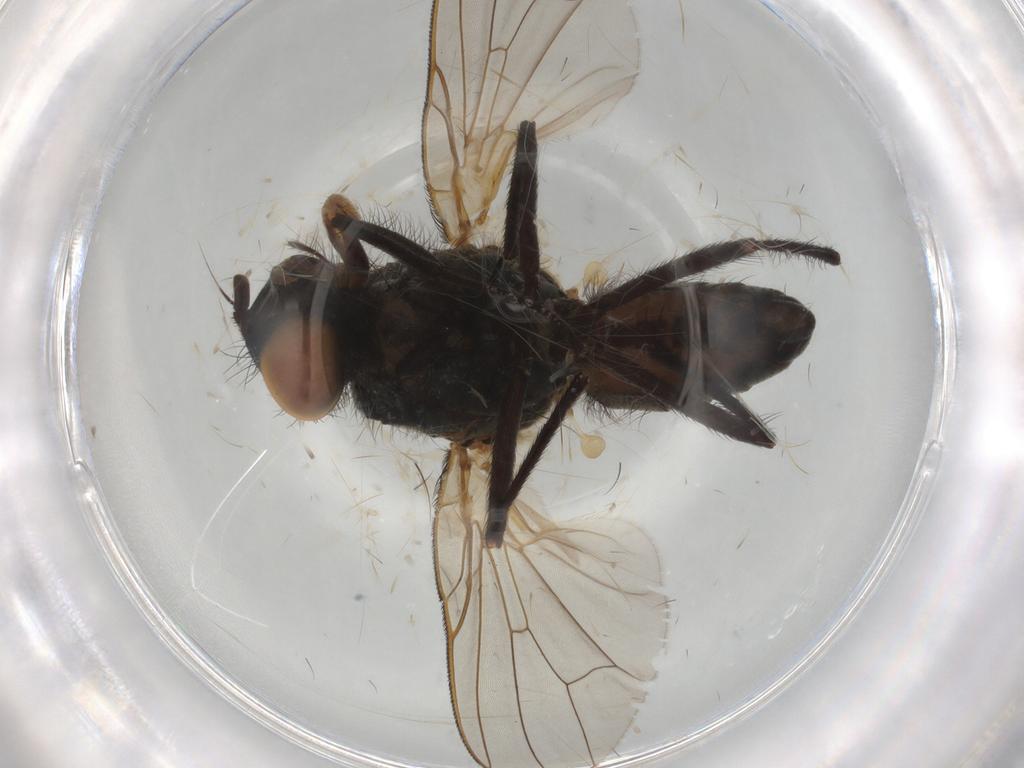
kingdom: Animalia
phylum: Arthropoda
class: Insecta
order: Diptera
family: Anthomyiidae
